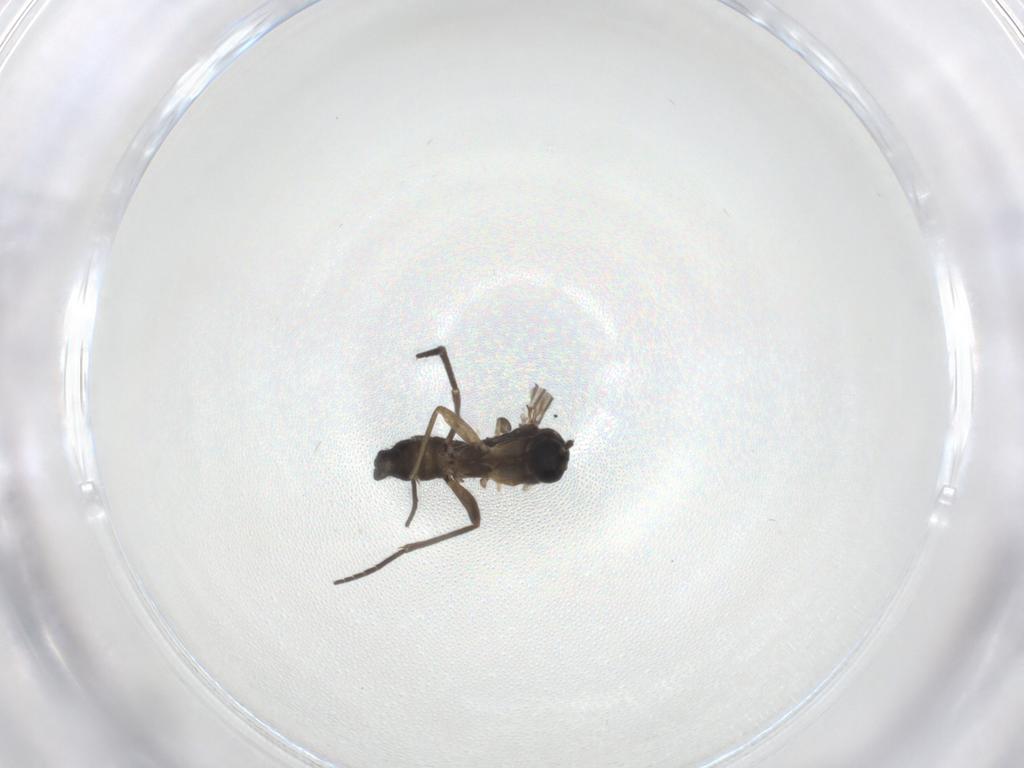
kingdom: Animalia
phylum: Arthropoda
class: Insecta
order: Diptera
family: Sciaridae
